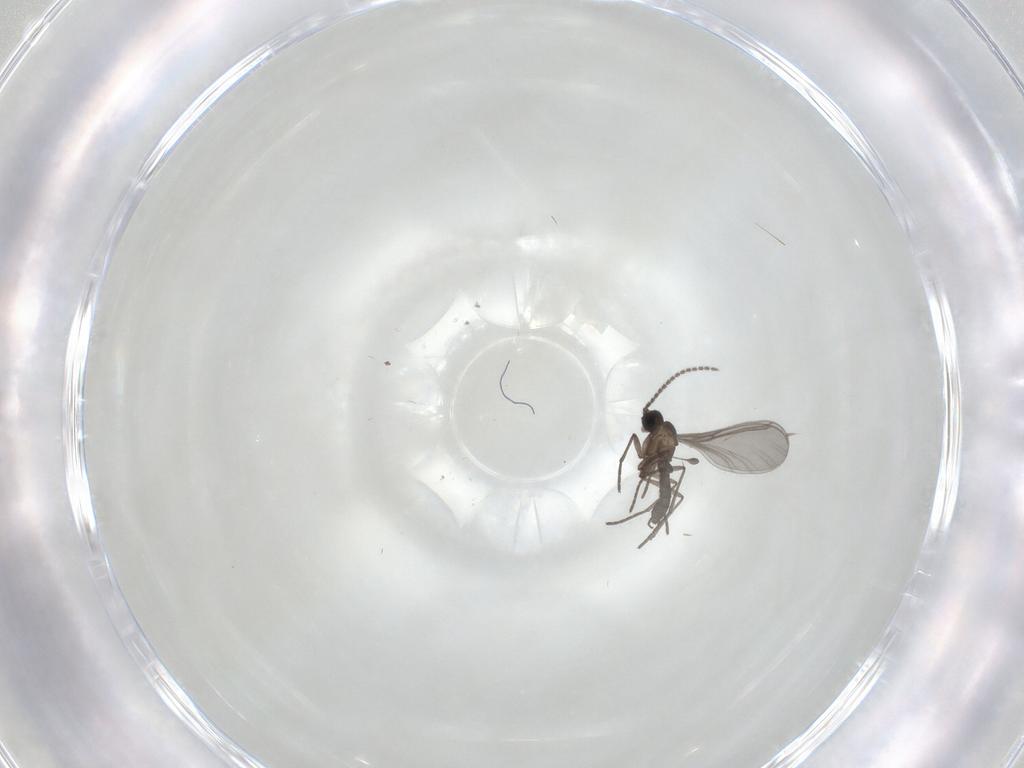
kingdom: Animalia
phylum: Arthropoda
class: Insecta
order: Diptera
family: Sciaridae
